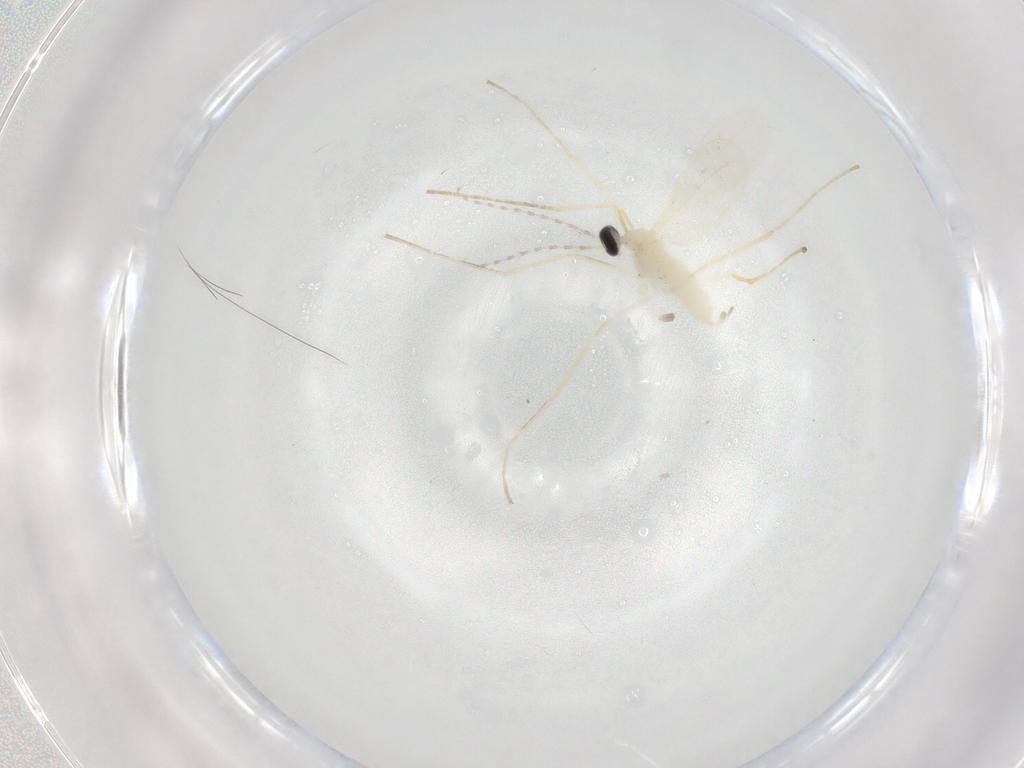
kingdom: Animalia
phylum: Arthropoda
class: Insecta
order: Diptera
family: Cecidomyiidae
